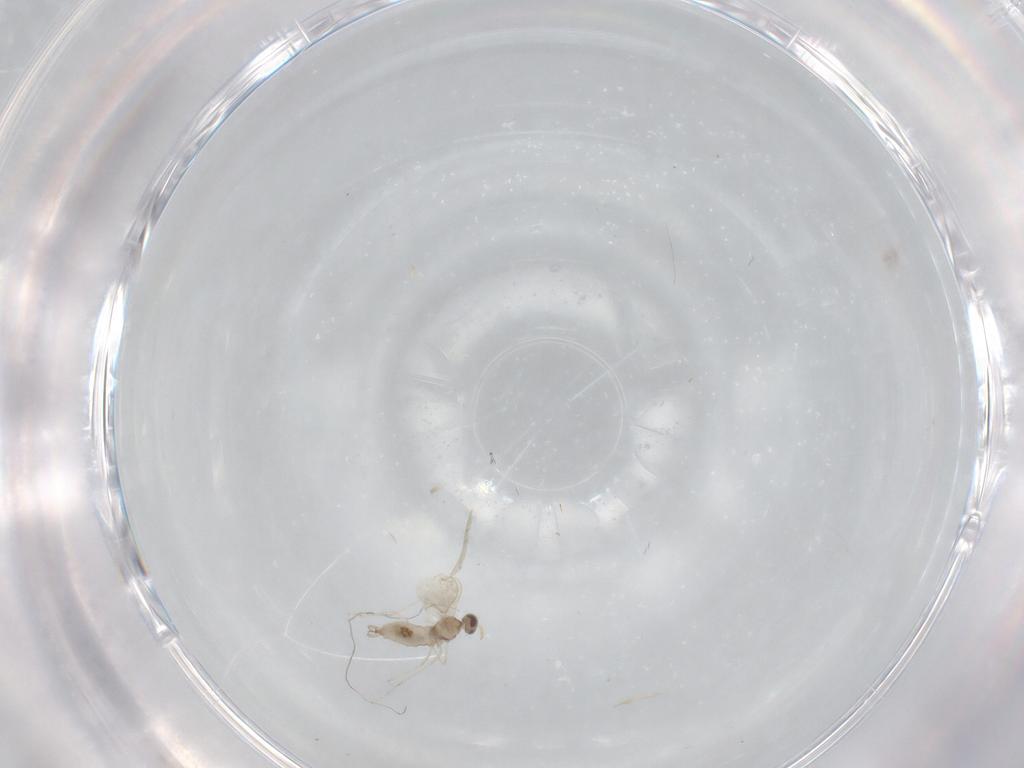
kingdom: Animalia
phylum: Arthropoda
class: Insecta
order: Diptera
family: Cecidomyiidae
